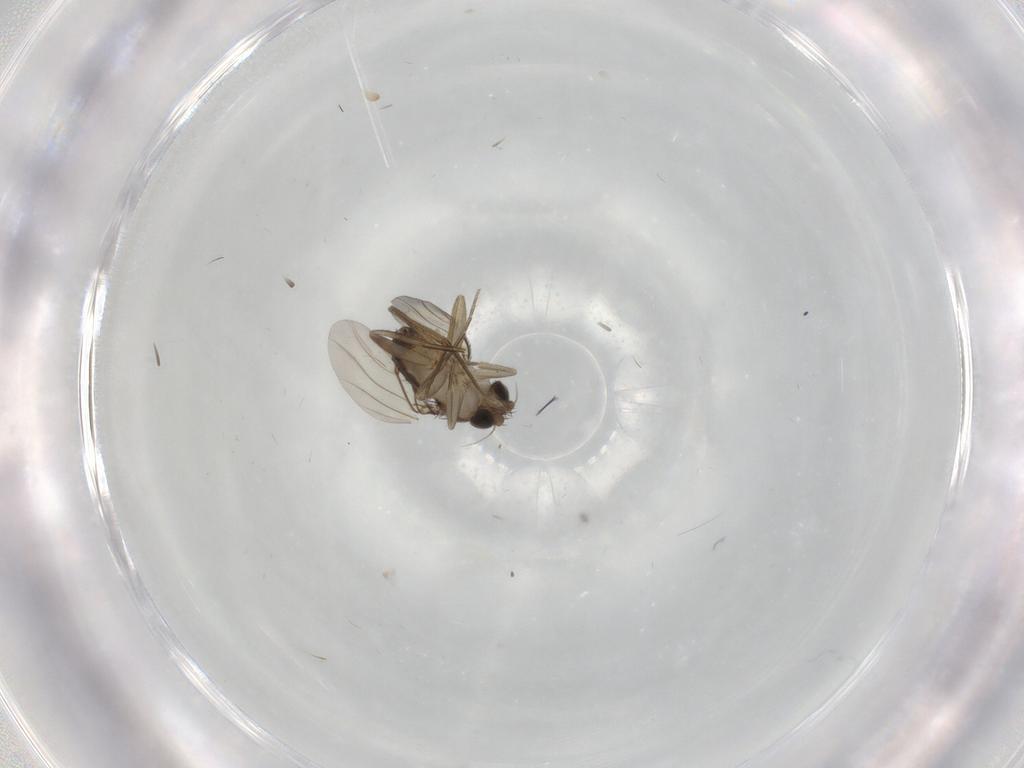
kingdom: Animalia
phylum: Arthropoda
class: Insecta
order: Diptera
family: Phoridae
